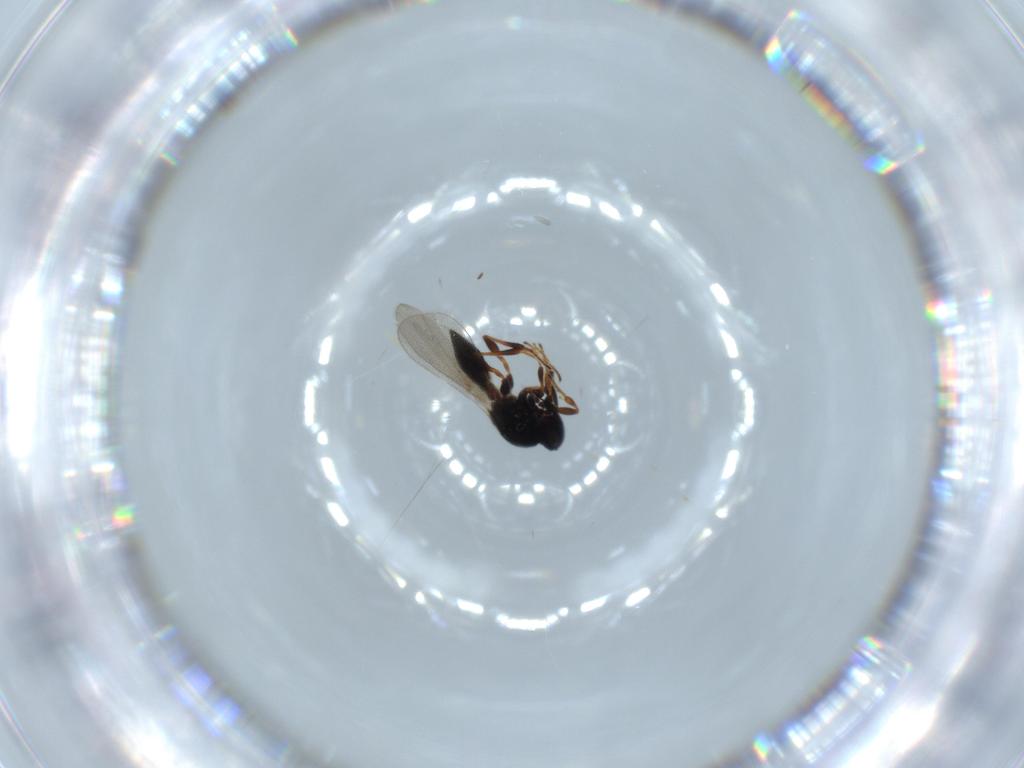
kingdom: Animalia
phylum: Arthropoda
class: Insecta
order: Hymenoptera
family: Platygastridae
